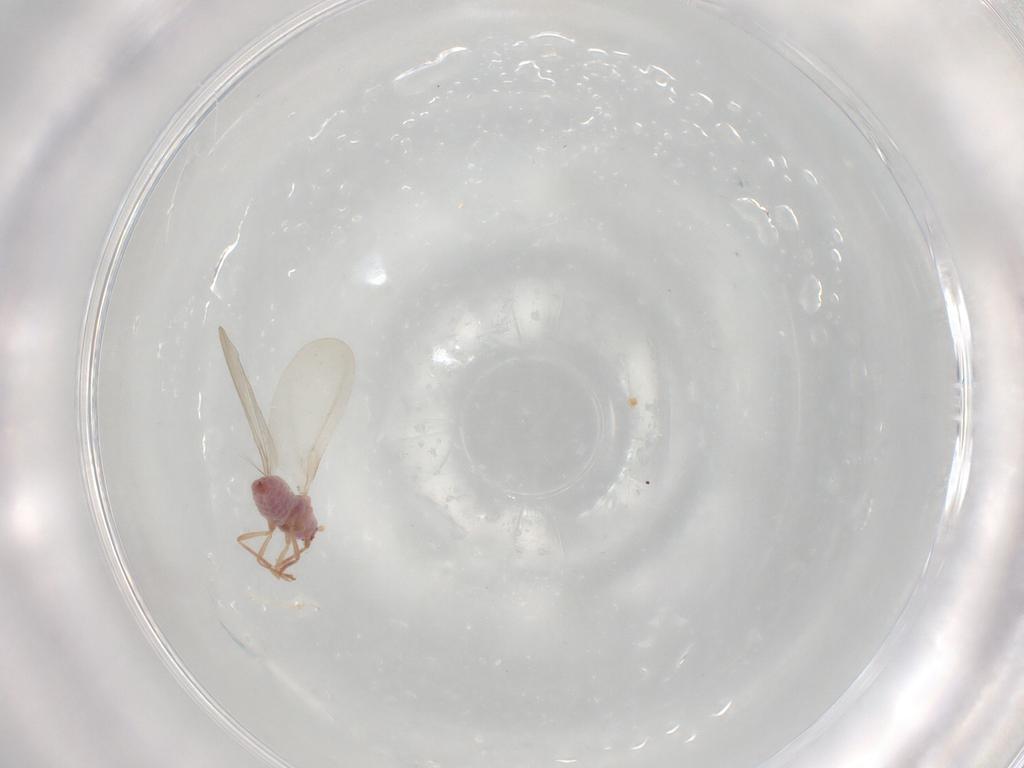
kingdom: Animalia
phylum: Arthropoda
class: Insecta
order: Hemiptera
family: Pseudococcidae
